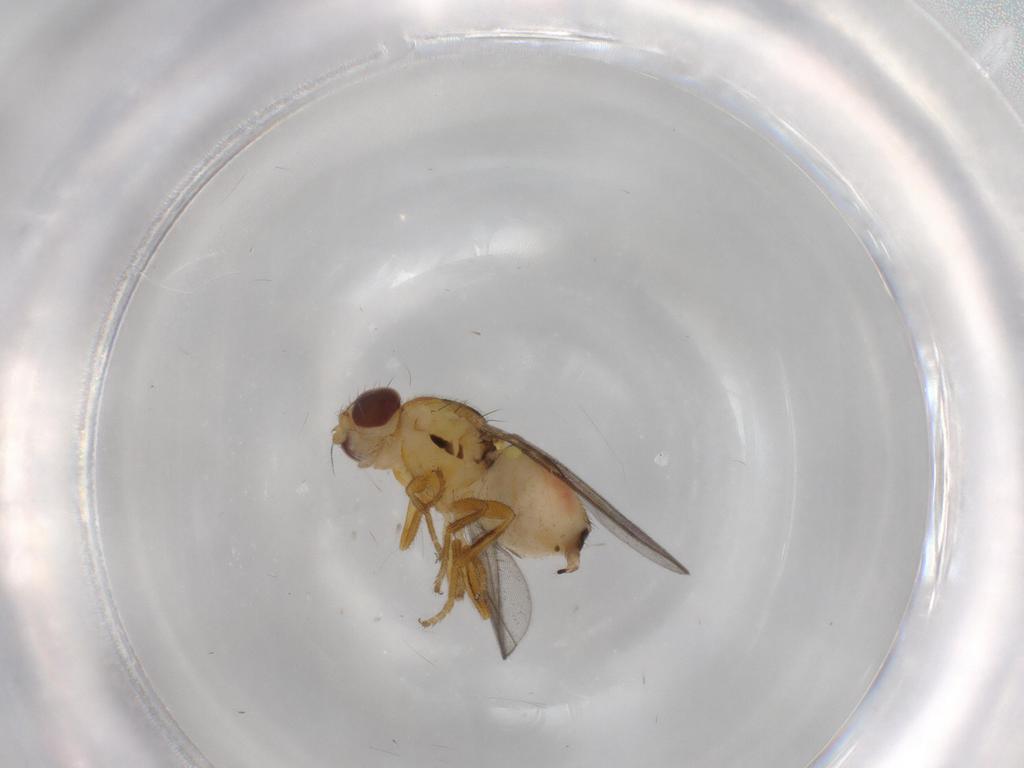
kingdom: Animalia
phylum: Arthropoda
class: Insecta
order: Diptera
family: Chloropidae
